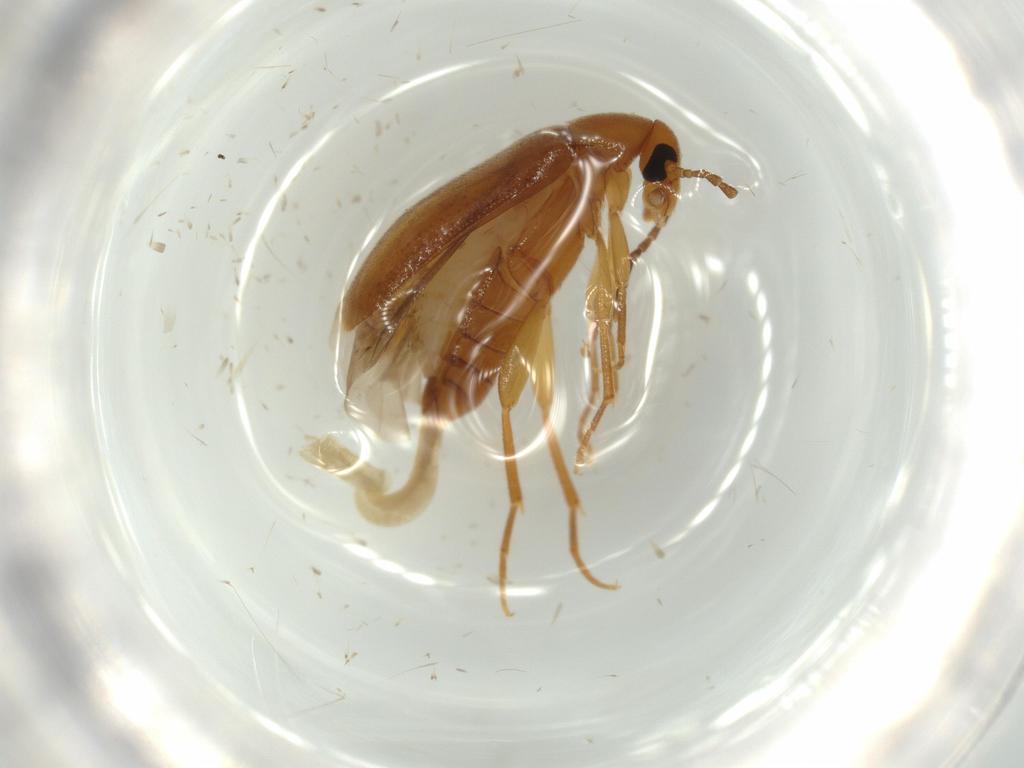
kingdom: Animalia
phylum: Arthropoda
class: Insecta
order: Coleoptera
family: Scraptiidae
